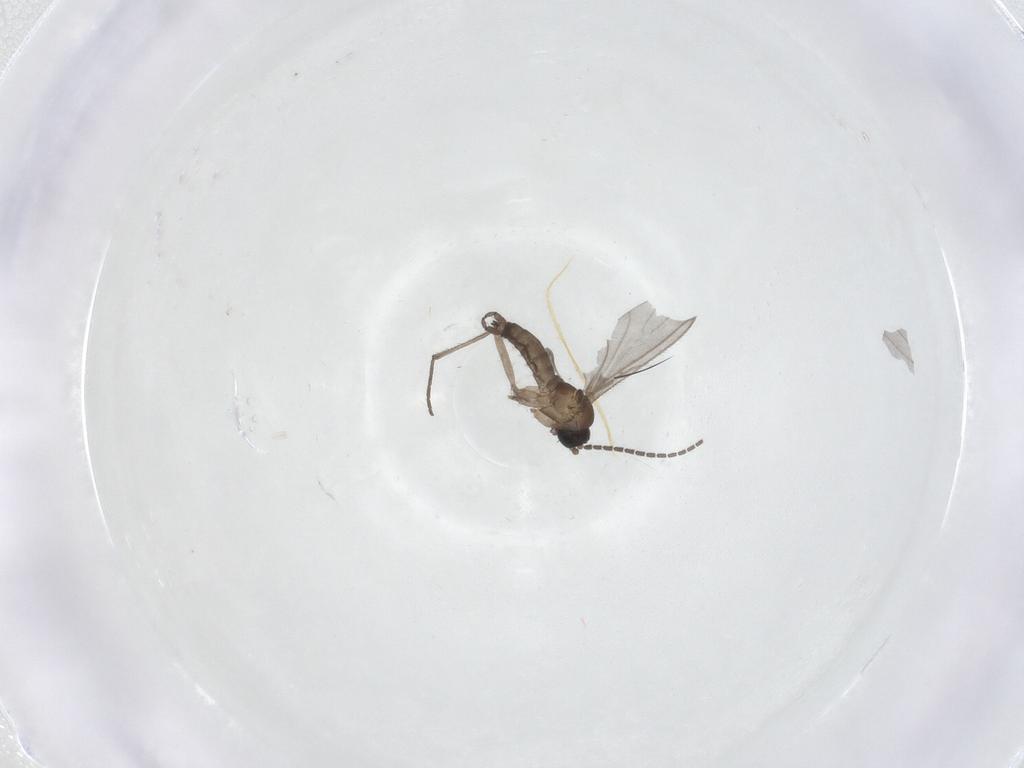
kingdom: Animalia
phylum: Arthropoda
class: Insecta
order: Diptera
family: Sciaridae
